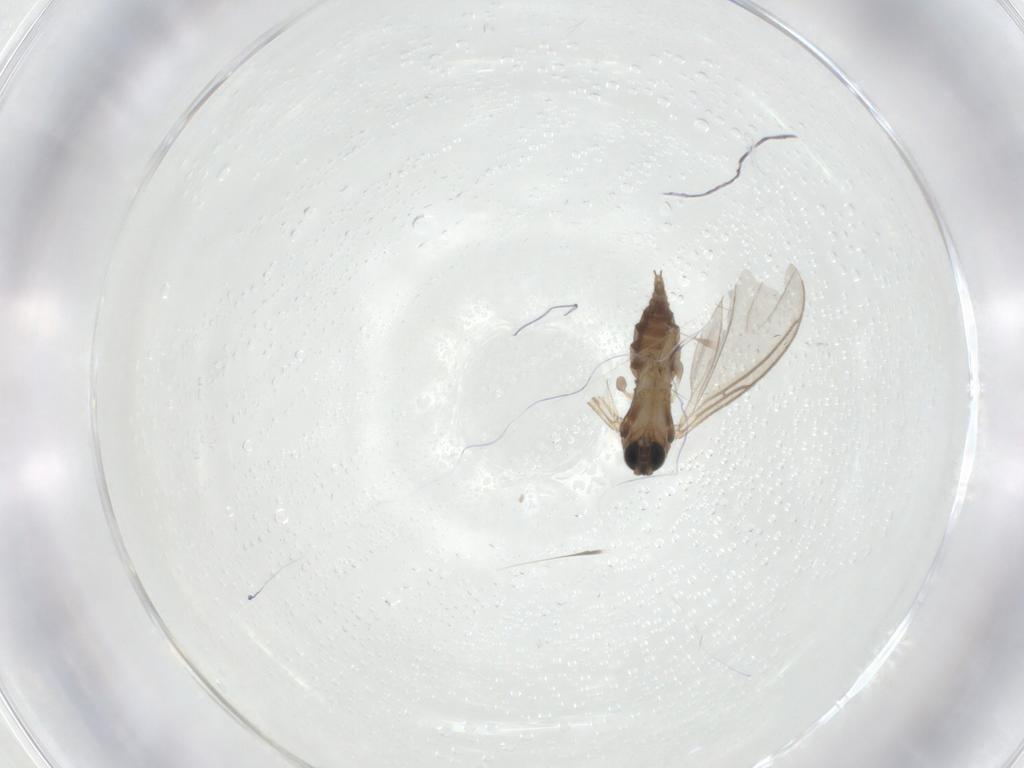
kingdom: Animalia
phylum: Arthropoda
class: Insecta
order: Diptera
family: Sciaridae
